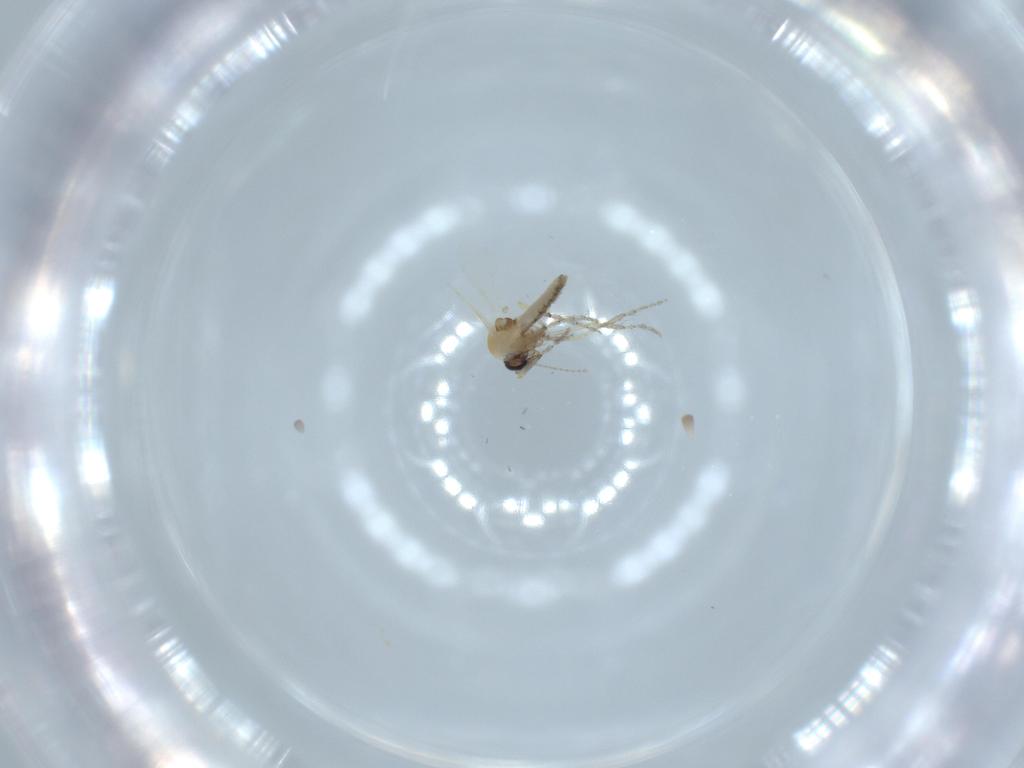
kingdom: Animalia
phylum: Arthropoda
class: Insecta
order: Diptera
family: Ceratopogonidae
